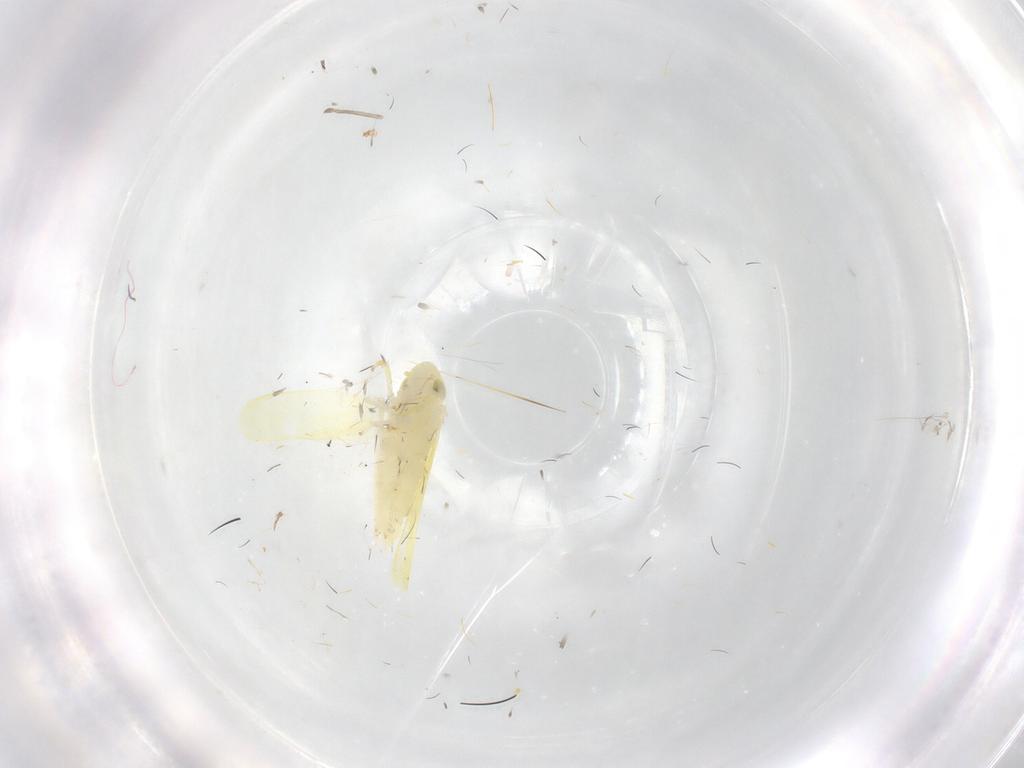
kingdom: Animalia
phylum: Arthropoda
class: Insecta
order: Hemiptera
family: Cicadellidae
